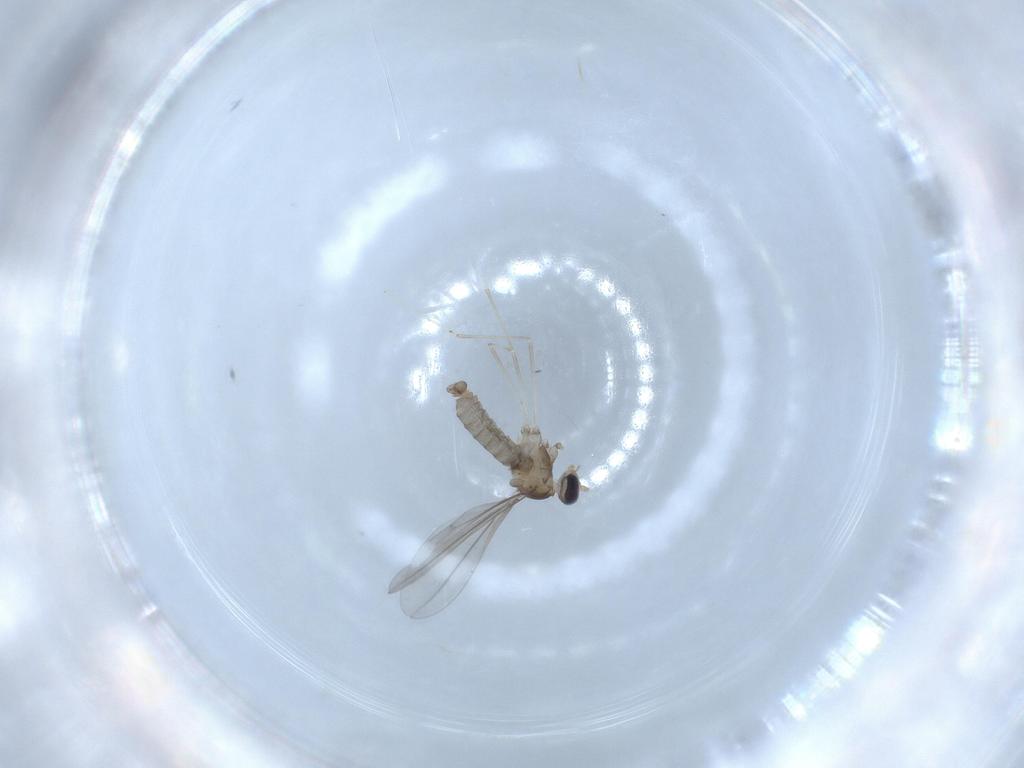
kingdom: Animalia
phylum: Arthropoda
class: Insecta
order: Diptera
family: Cecidomyiidae
